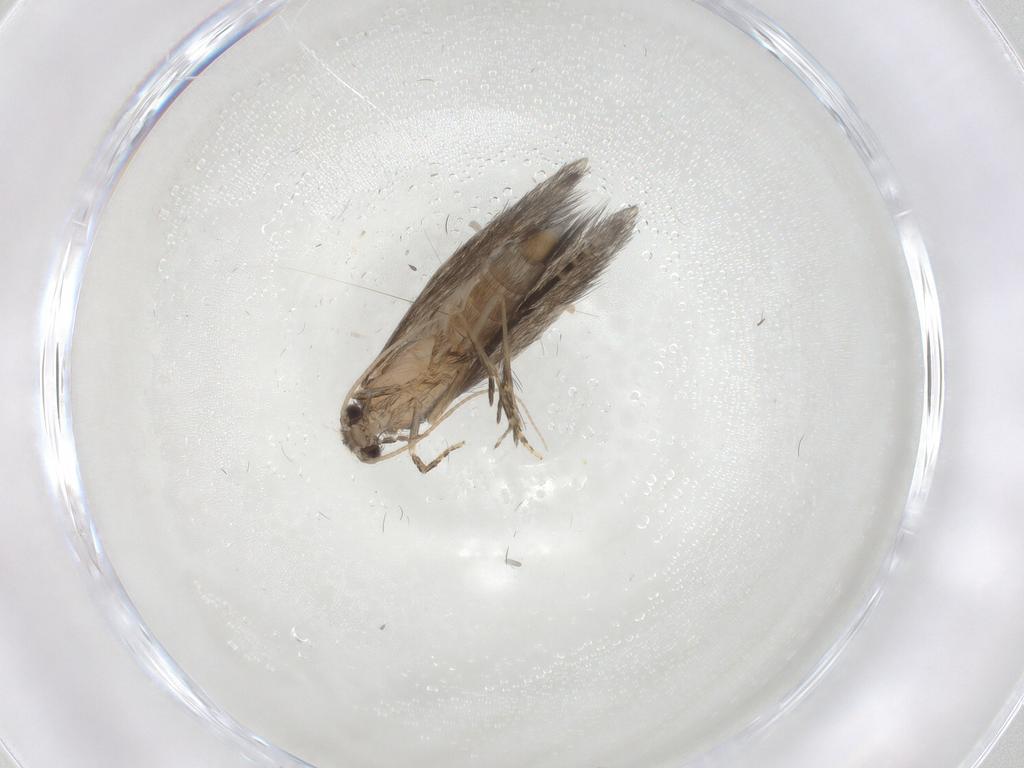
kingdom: Animalia
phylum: Arthropoda
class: Insecta
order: Trichoptera
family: Hydroptilidae
